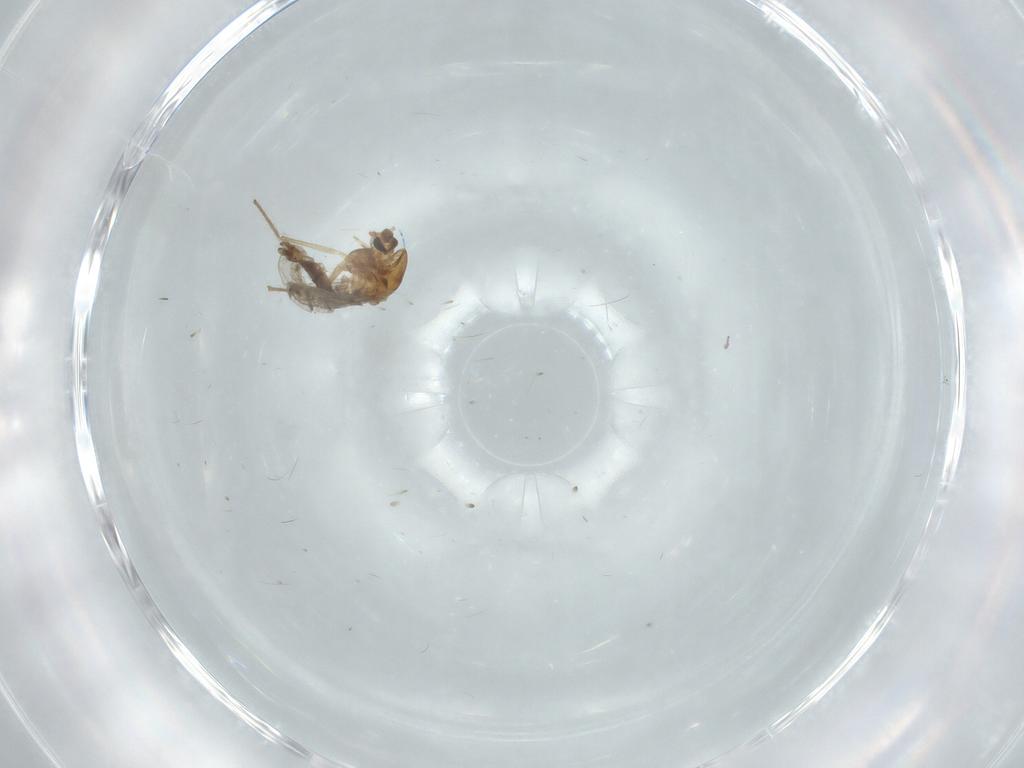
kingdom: Animalia
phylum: Arthropoda
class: Insecta
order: Diptera
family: Chironomidae
